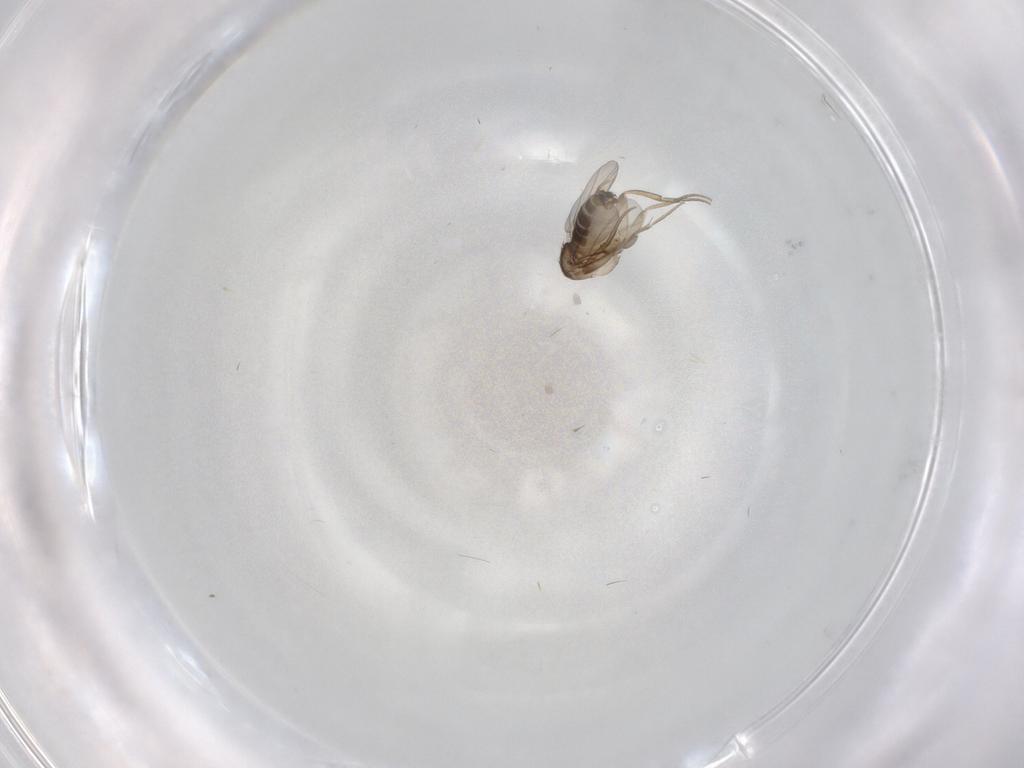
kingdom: Animalia
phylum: Arthropoda
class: Insecta
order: Diptera
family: Phoridae
